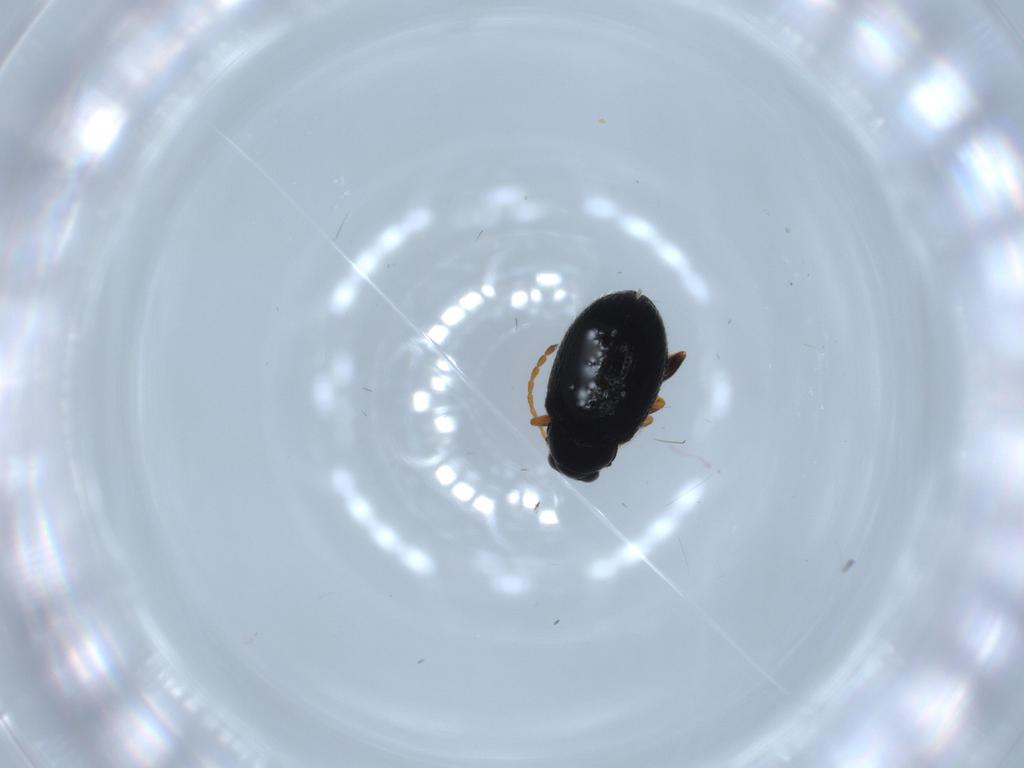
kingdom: Animalia
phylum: Arthropoda
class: Insecta
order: Coleoptera
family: Chrysomelidae
